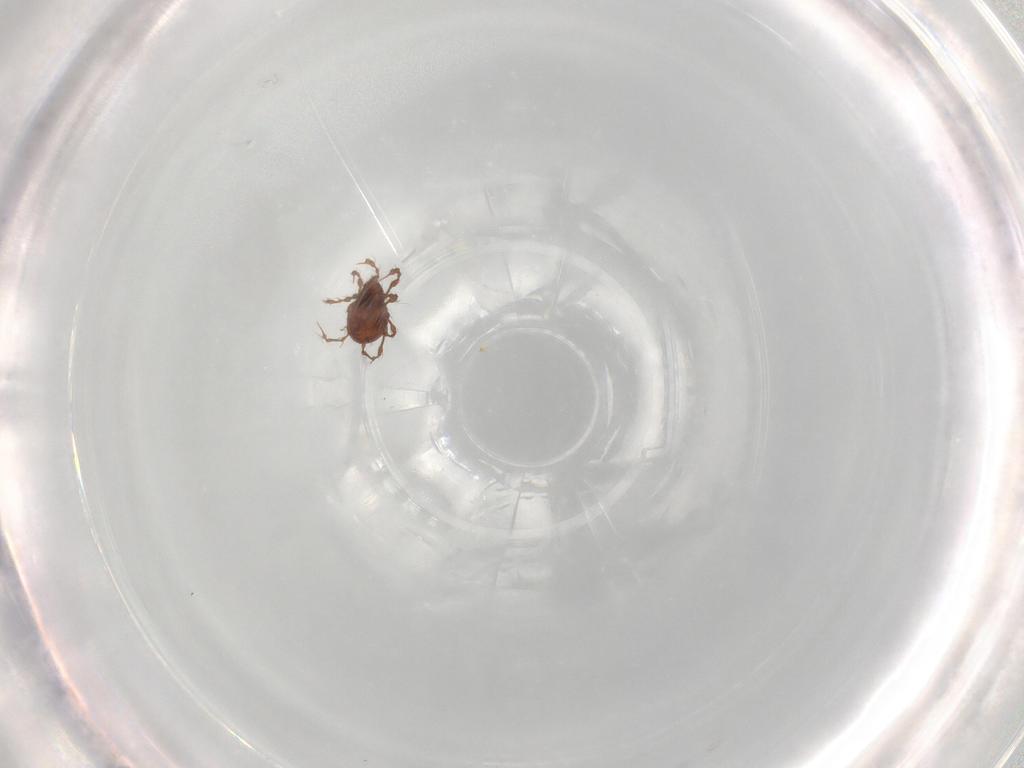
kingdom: Animalia
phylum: Arthropoda
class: Arachnida
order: Sarcoptiformes
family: Damaeidae
